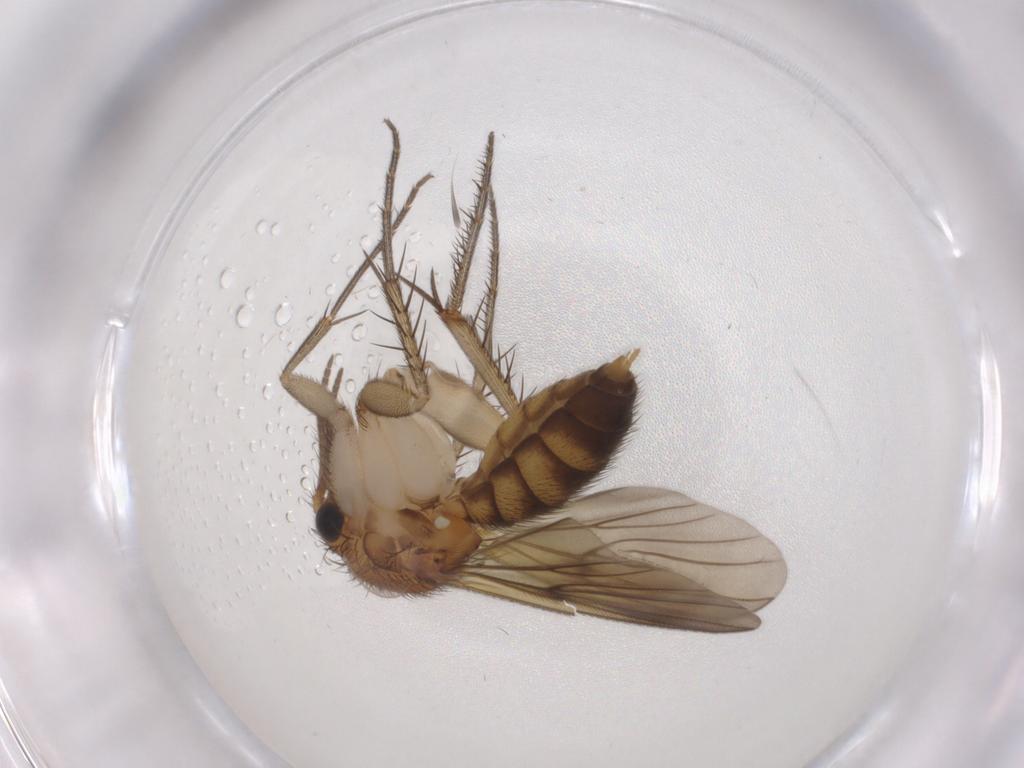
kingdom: Animalia
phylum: Arthropoda
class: Insecta
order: Diptera
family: Mycetophilidae
